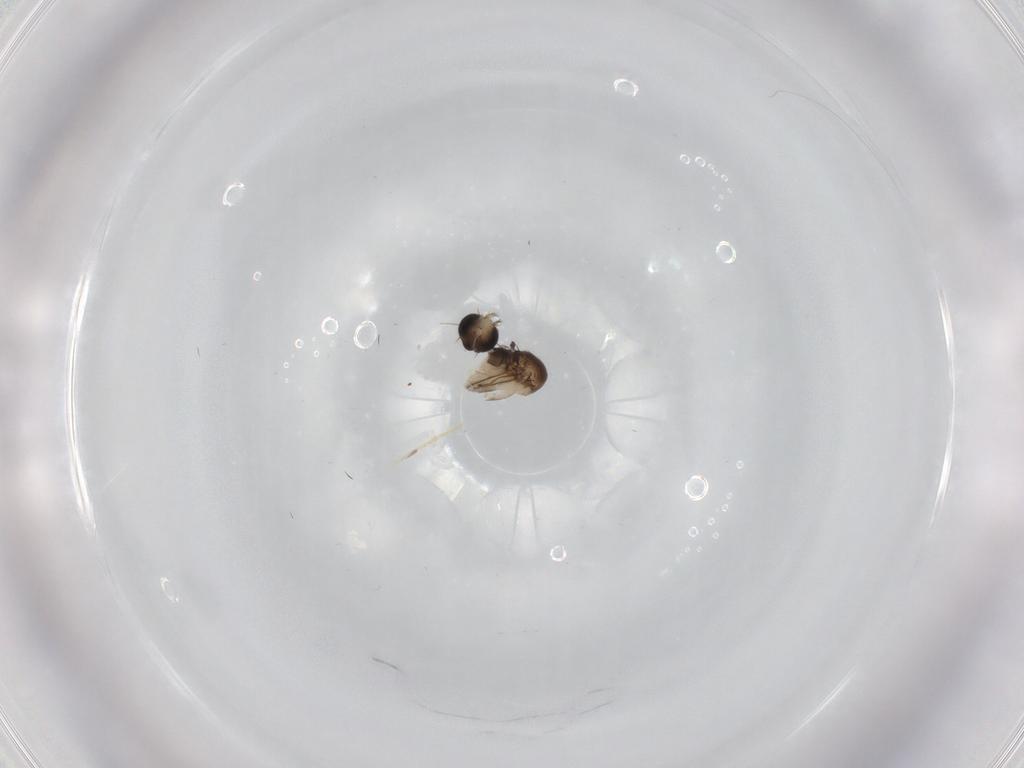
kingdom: Animalia
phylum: Arthropoda
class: Insecta
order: Diptera
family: Phoridae
